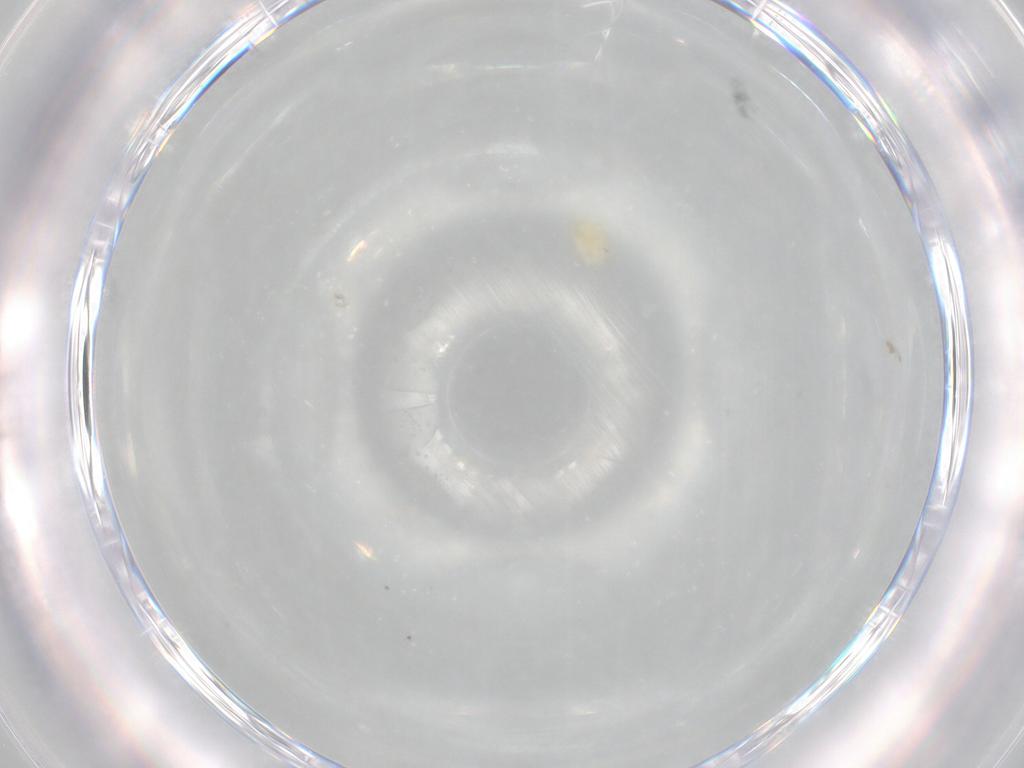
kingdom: Animalia
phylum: Arthropoda
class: Arachnida
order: Trombidiformes
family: Trombidiidae
